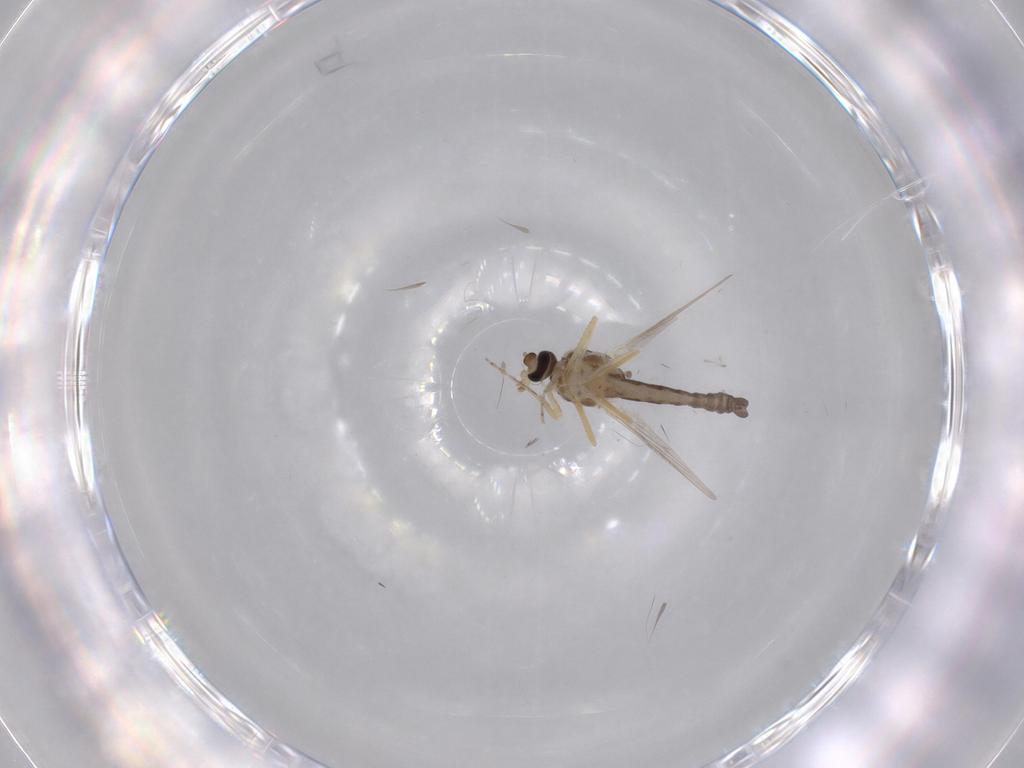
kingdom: Animalia
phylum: Arthropoda
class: Insecta
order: Diptera
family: Ceratopogonidae
